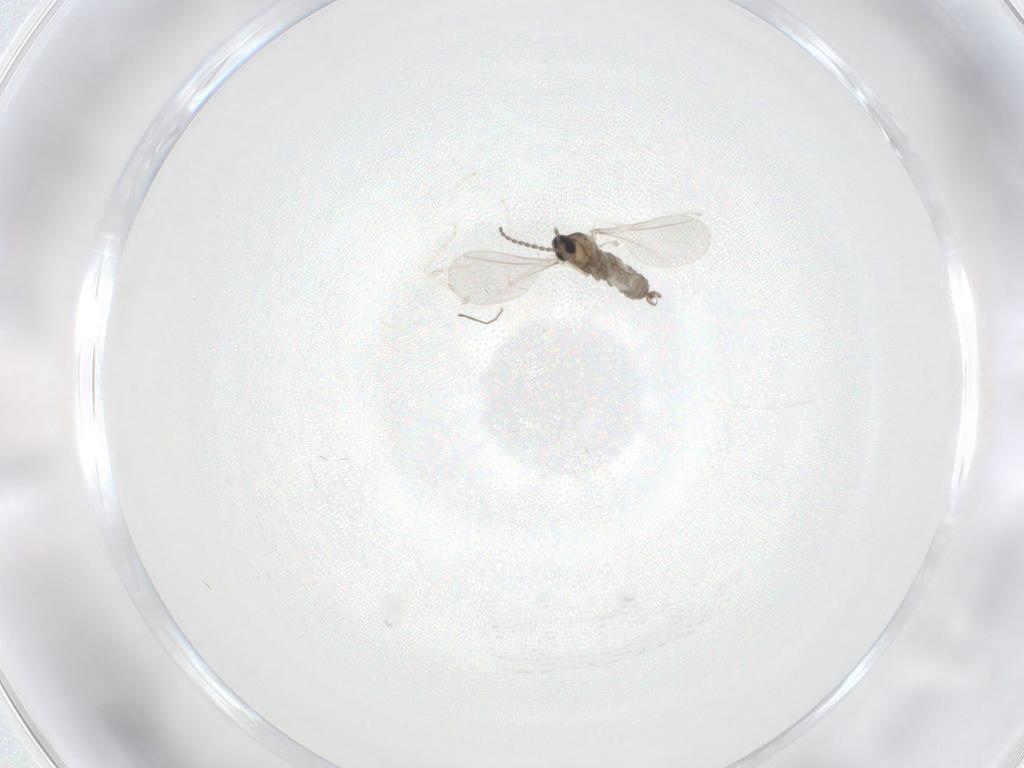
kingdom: Animalia
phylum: Arthropoda
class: Insecta
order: Diptera
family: Cecidomyiidae
